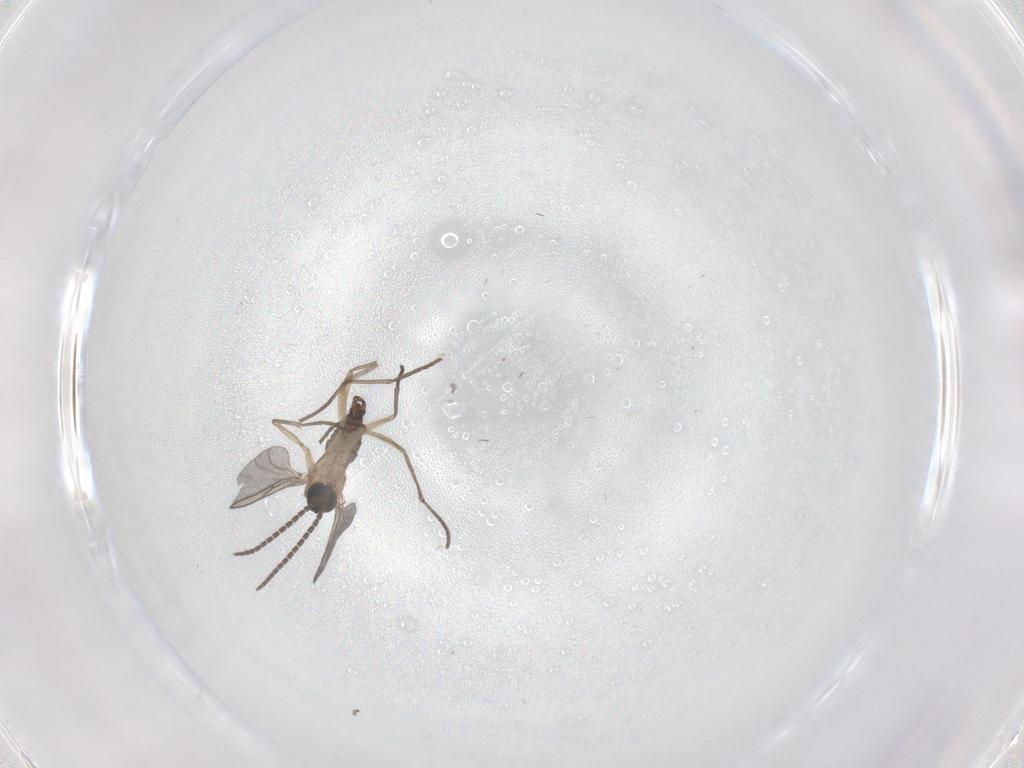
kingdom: Animalia
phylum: Arthropoda
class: Insecta
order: Diptera
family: Sciaridae
